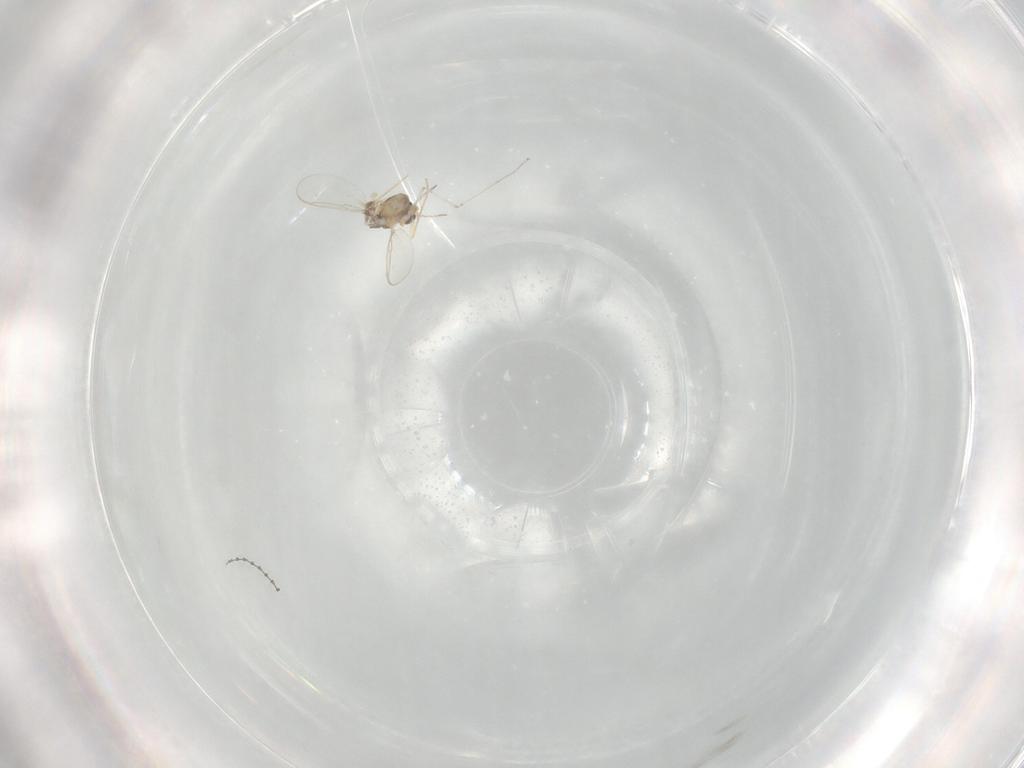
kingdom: Animalia
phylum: Arthropoda
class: Insecta
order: Diptera
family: Chironomidae
